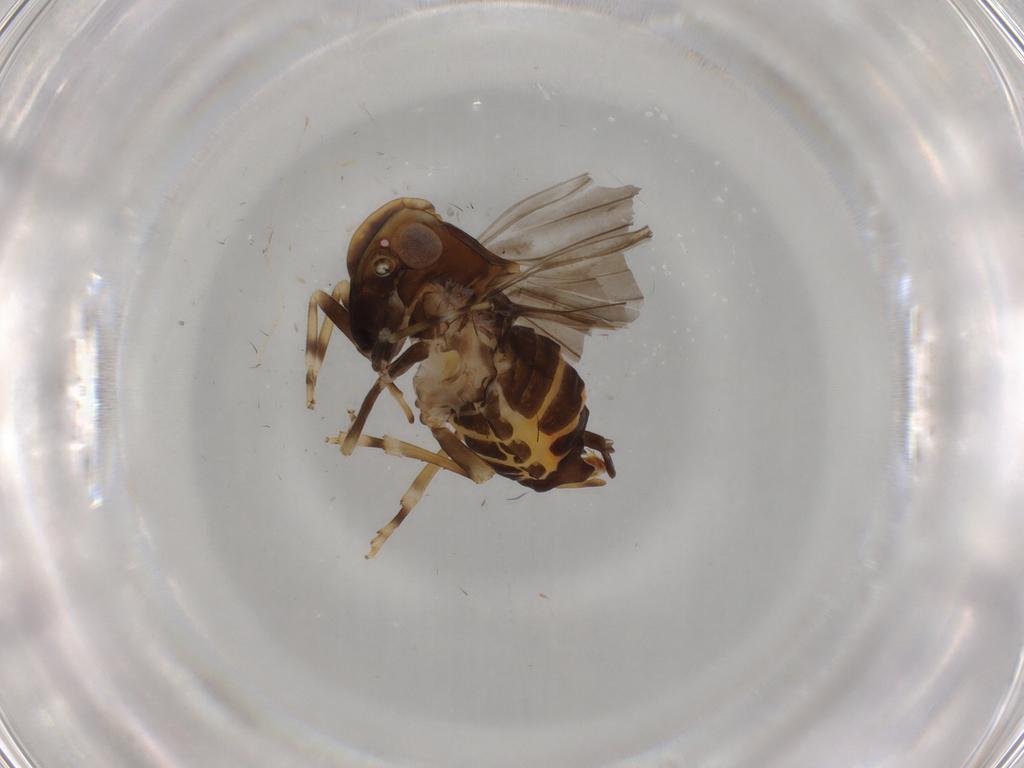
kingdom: Animalia
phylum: Arthropoda
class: Insecta
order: Hemiptera
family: Cixiidae
